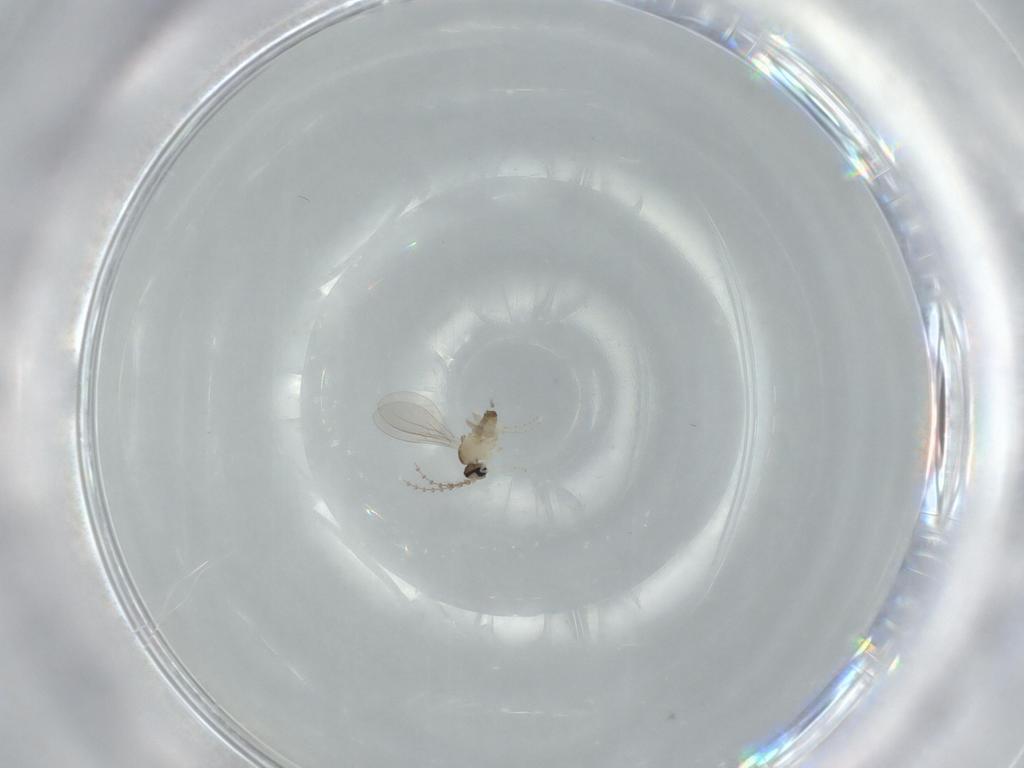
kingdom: Animalia
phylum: Arthropoda
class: Insecta
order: Diptera
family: Cecidomyiidae
